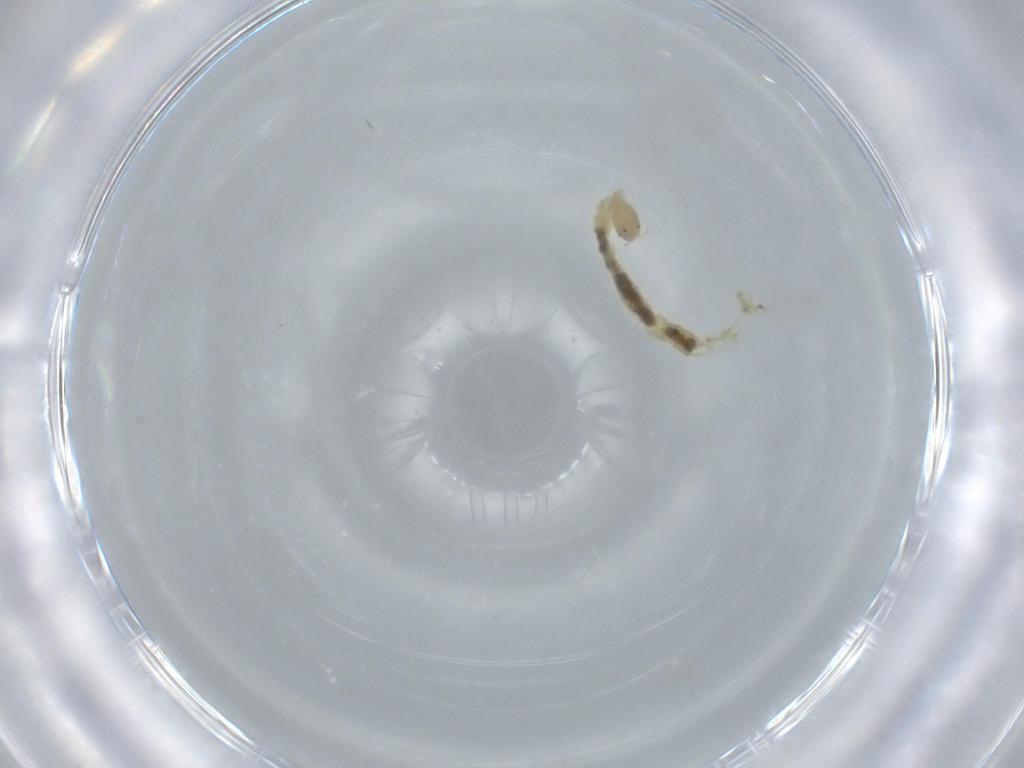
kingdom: Animalia
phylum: Arthropoda
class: Insecta
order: Diptera
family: Chironomidae
